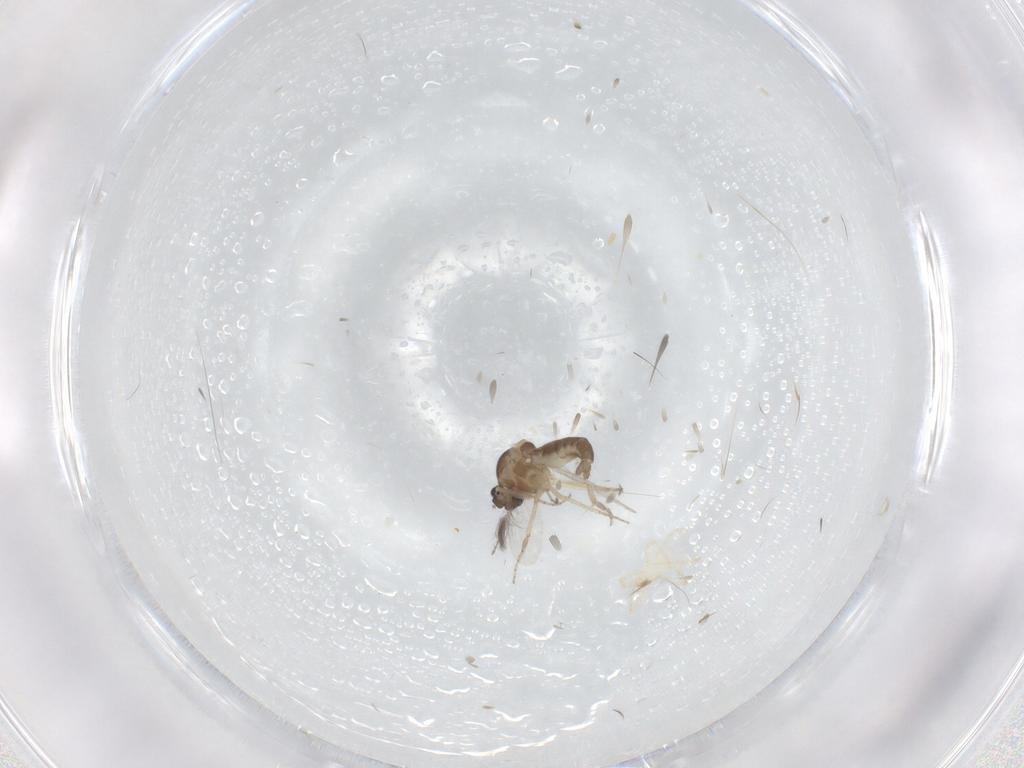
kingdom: Animalia
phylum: Arthropoda
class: Insecta
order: Diptera
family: Ceratopogonidae
